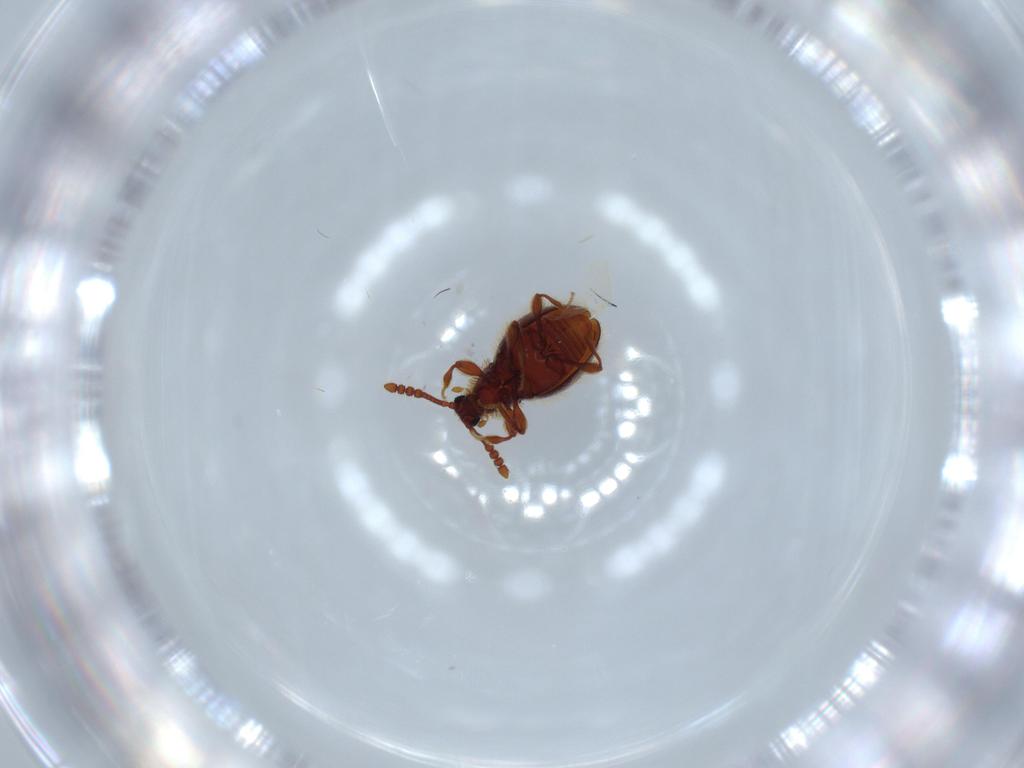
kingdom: Animalia
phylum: Arthropoda
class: Insecta
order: Coleoptera
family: Staphylinidae
